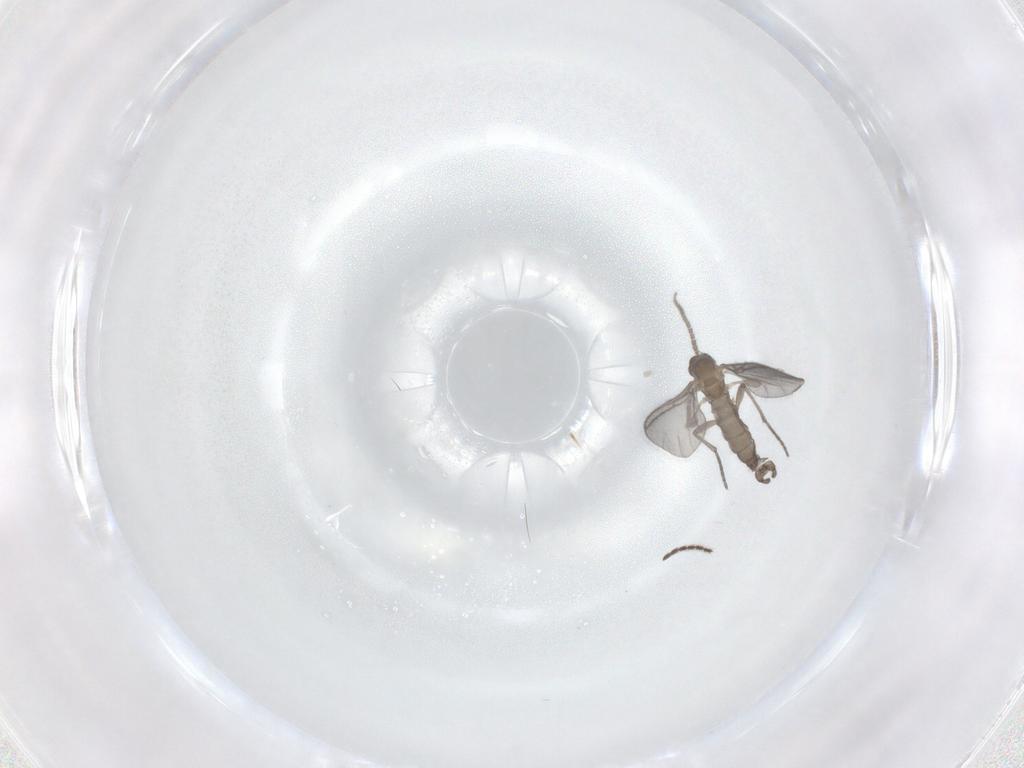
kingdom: Animalia
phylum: Arthropoda
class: Insecta
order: Diptera
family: Sciaridae
